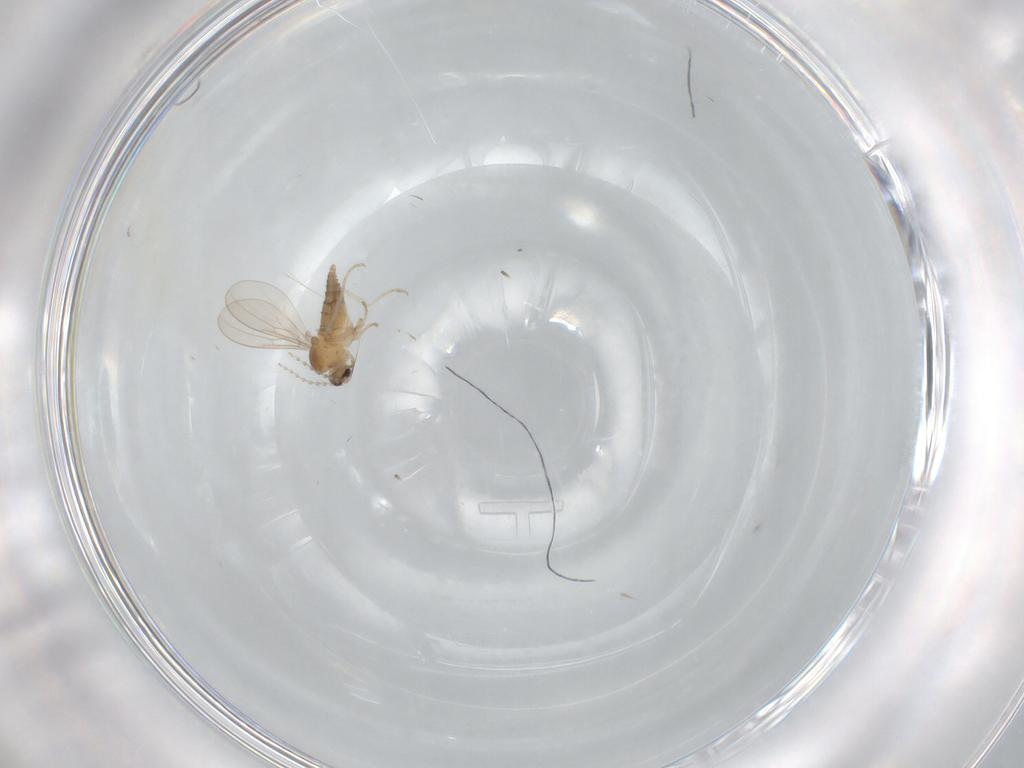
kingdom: Animalia
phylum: Arthropoda
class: Insecta
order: Diptera
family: Cecidomyiidae
